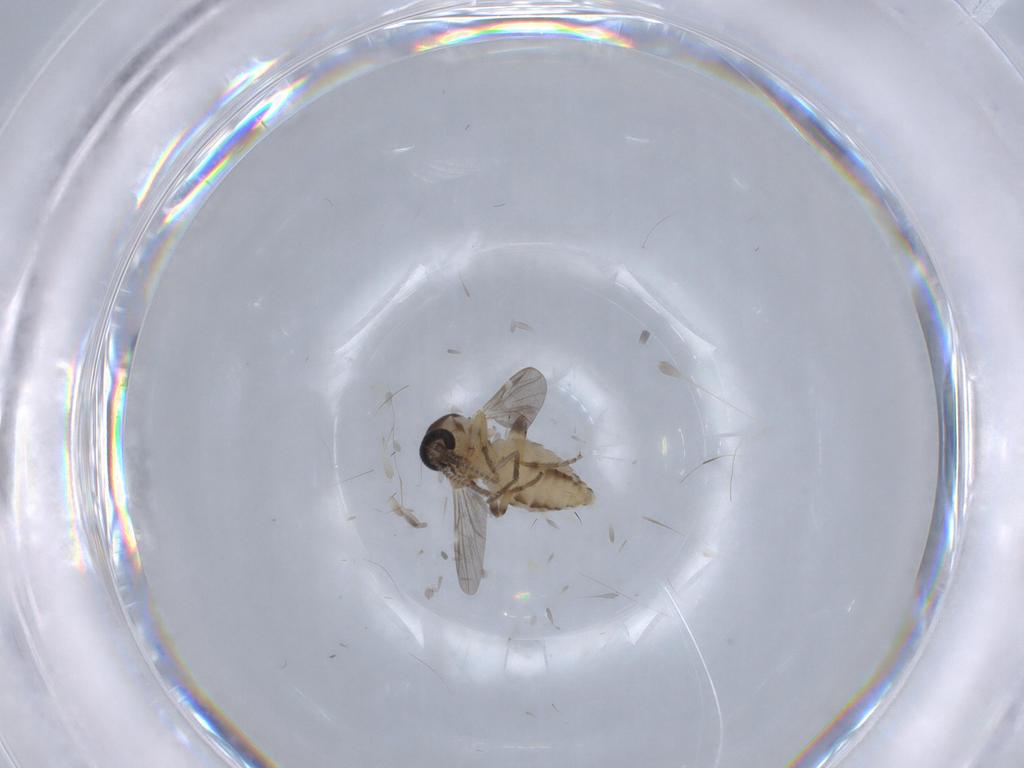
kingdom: Animalia
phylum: Arthropoda
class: Insecta
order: Diptera
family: Ceratopogonidae
